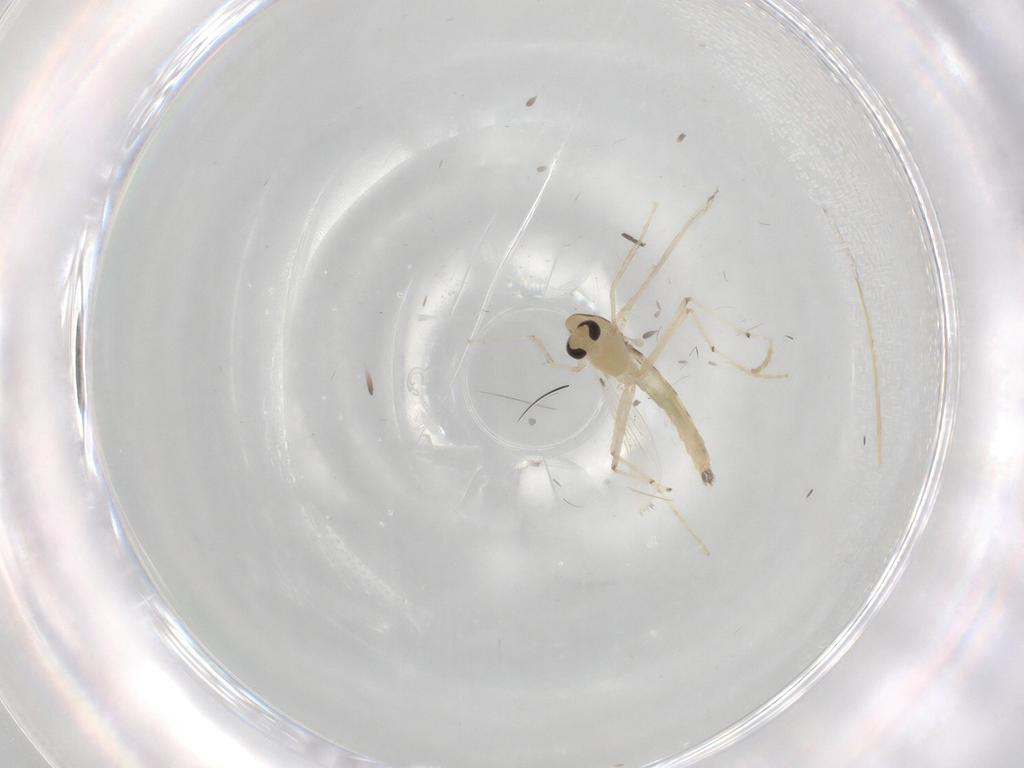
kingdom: Animalia
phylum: Arthropoda
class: Insecta
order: Diptera
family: Chironomidae
